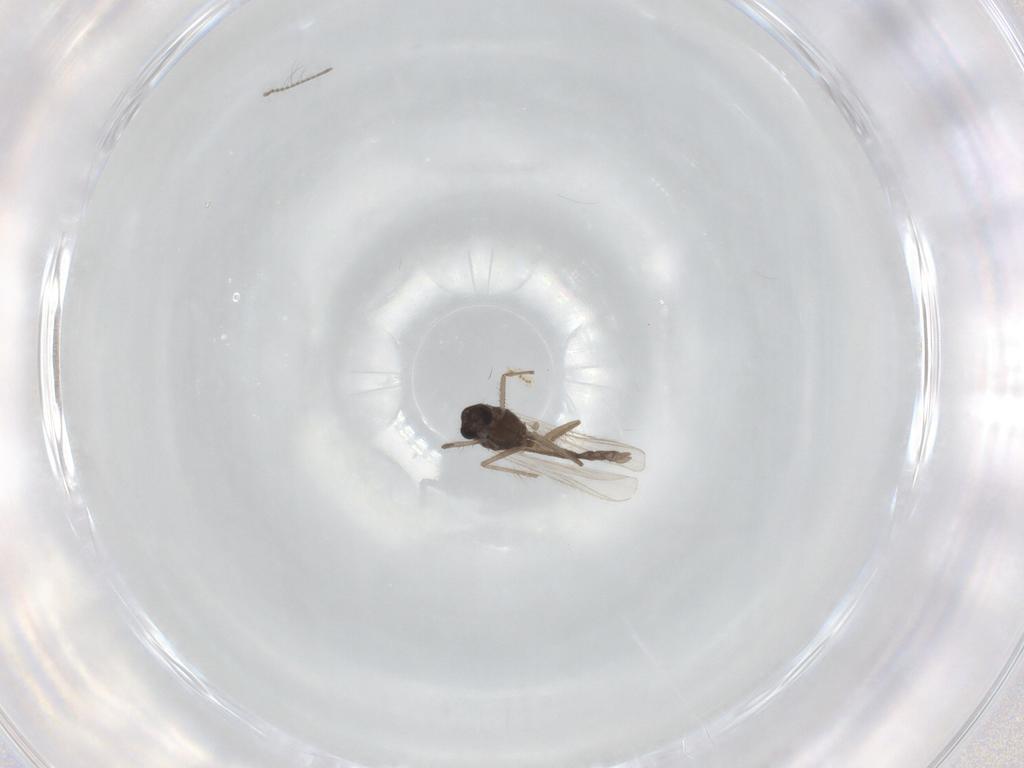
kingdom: Animalia
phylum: Arthropoda
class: Insecta
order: Diptera
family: Chironomidae
